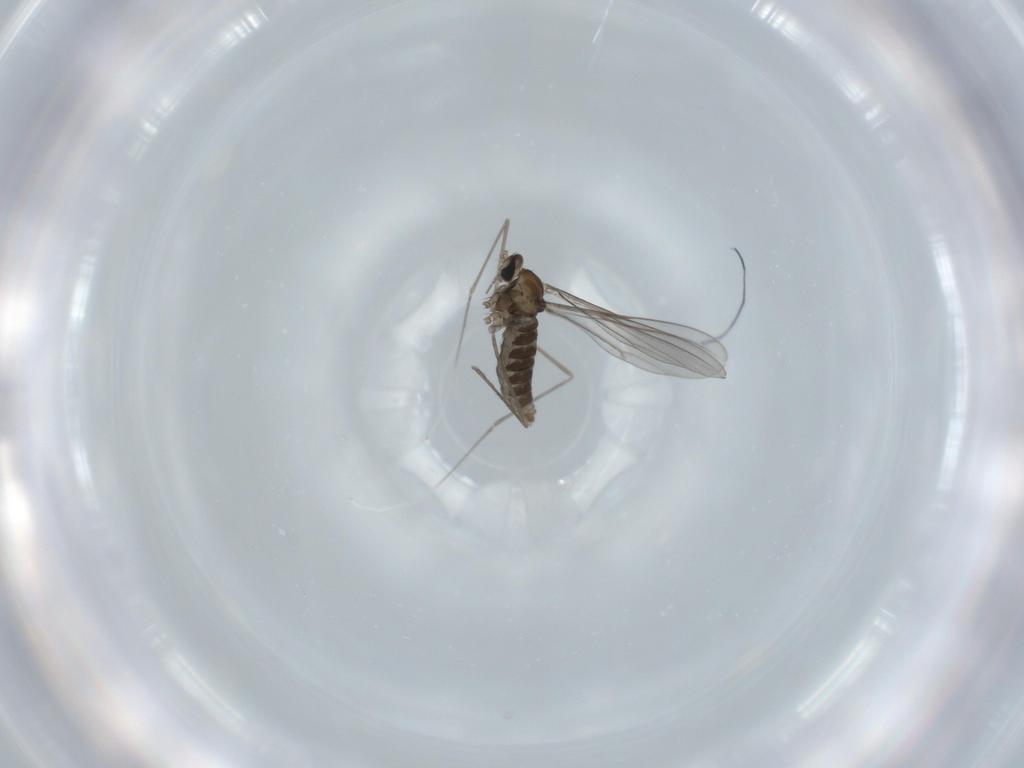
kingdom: Animalia
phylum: Arthropoda
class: Insecta
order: Diptera
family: Cecidomyiidae
